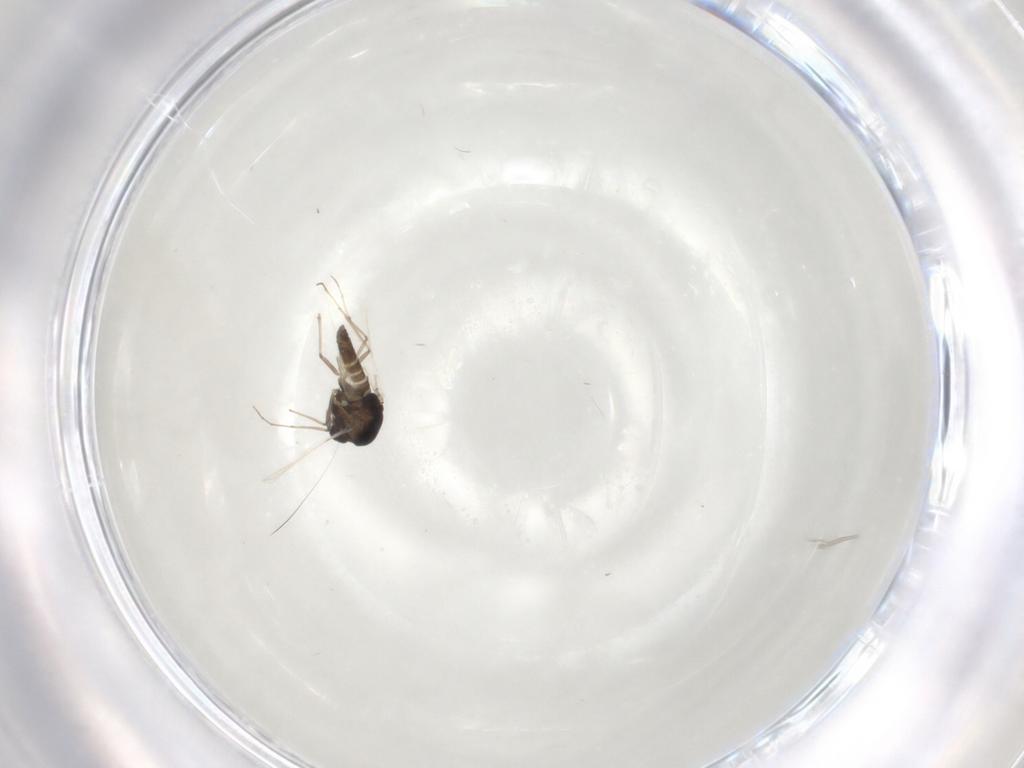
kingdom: Animalia
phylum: Arthropoda
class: Insecta
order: Diptera
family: Chironomidae
